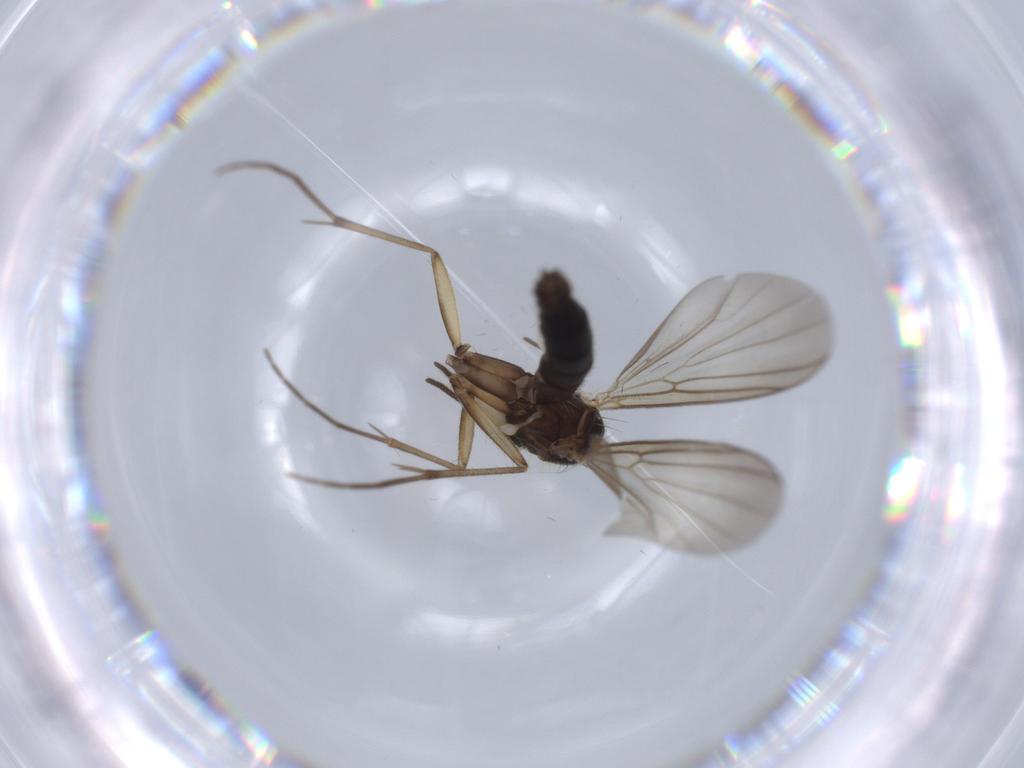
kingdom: Animalia
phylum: Arthropoda
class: Insecta
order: Diptera
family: Mycetophilidae
